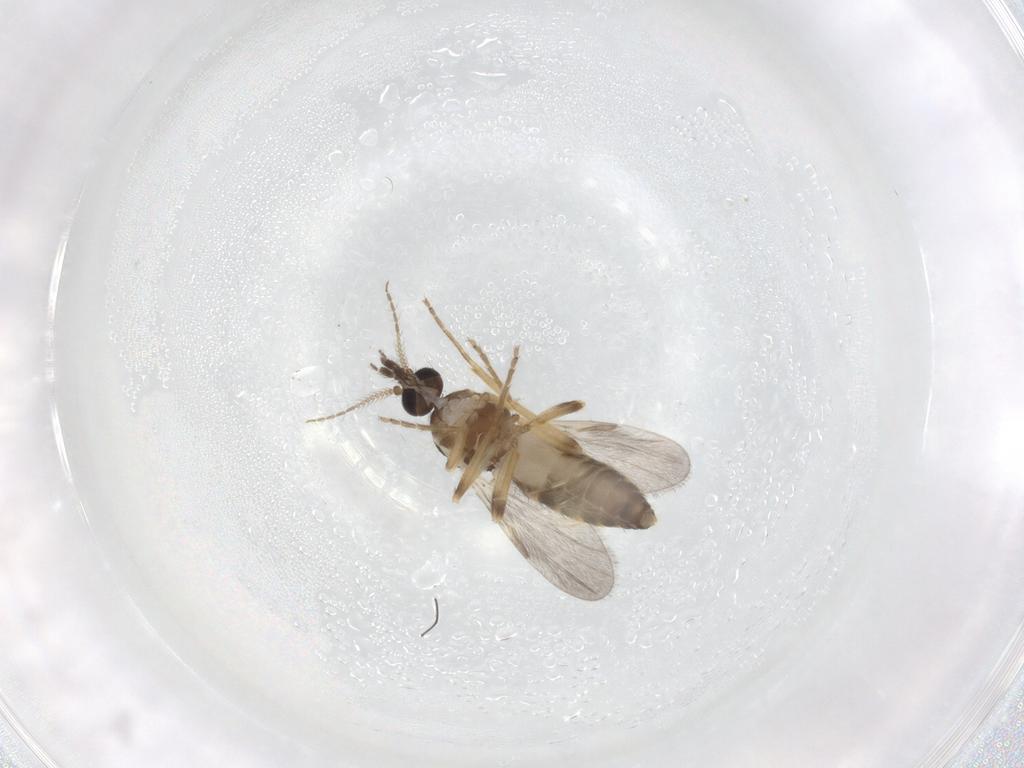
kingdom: Animalia
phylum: Arthropoda
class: Insecta
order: Diptera
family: Ceratopogonidae
